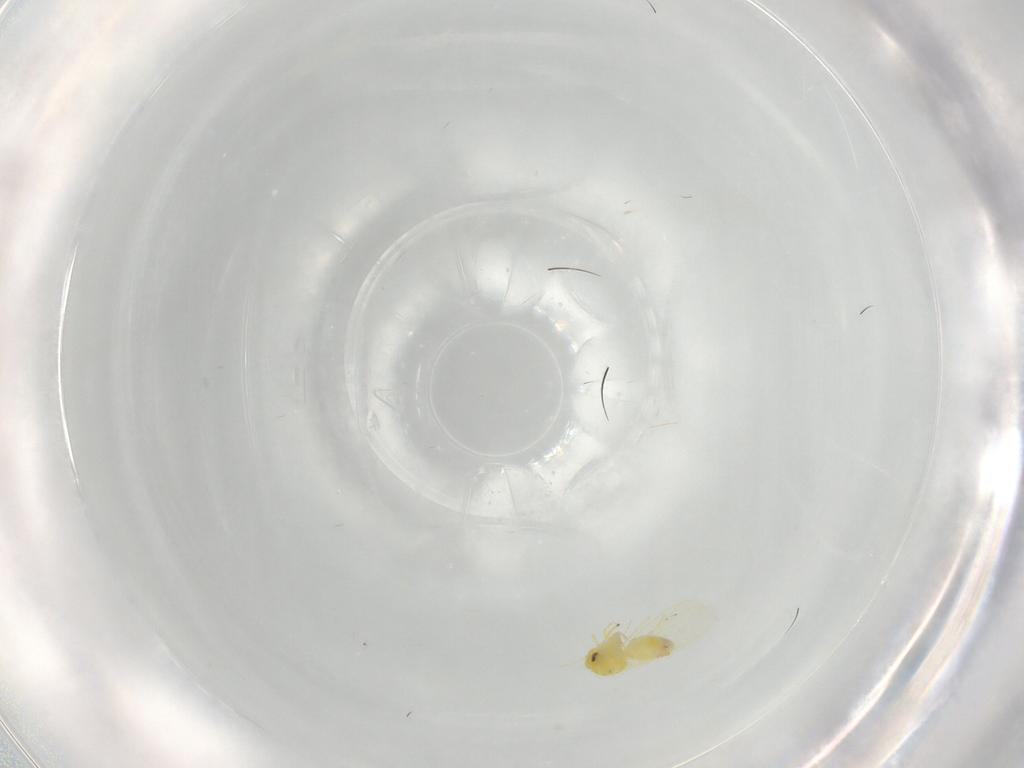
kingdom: Animalia
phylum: Arthropoda
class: Insecta
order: Hemiptera
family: Aleyrodidae
